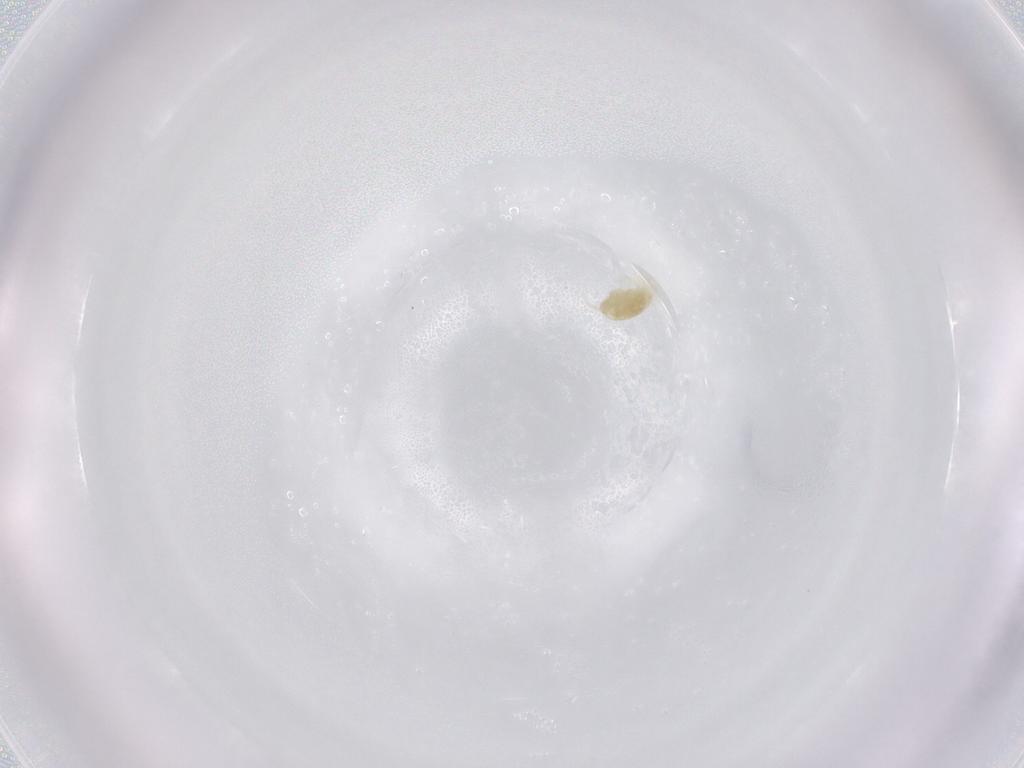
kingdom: Animalia
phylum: Arthropoda
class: Arachnida
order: Trombidiformes
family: Eupodidae
